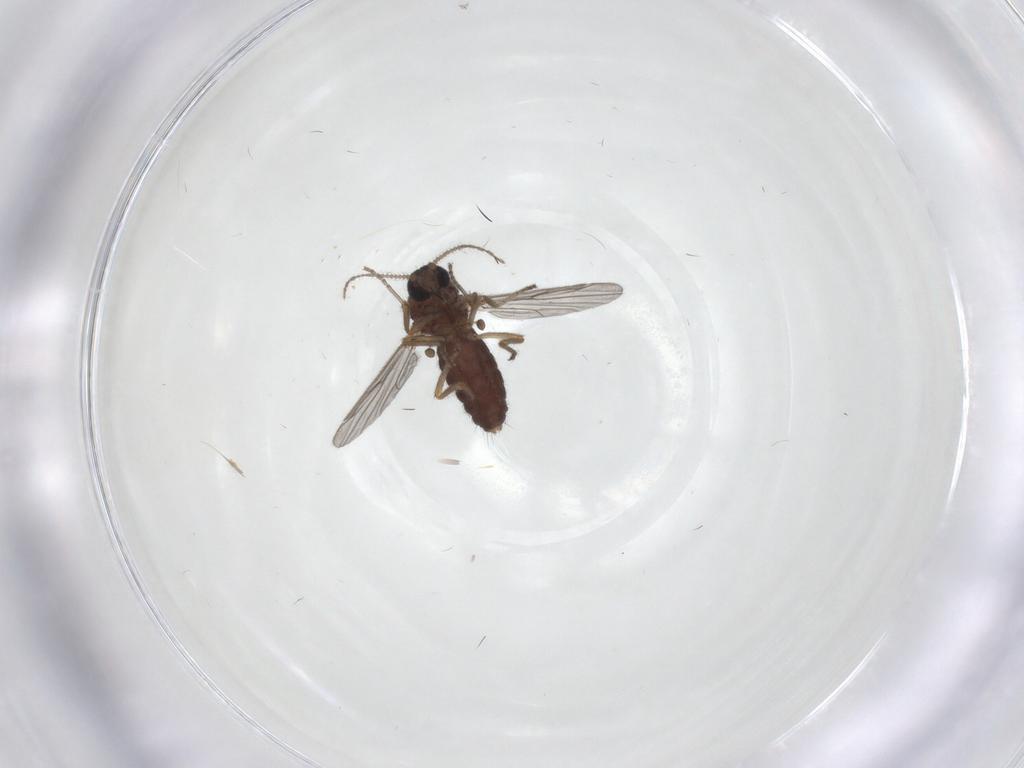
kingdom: Animalia
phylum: Arthropoda
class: Insecta
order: Diptera
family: Ceratopogonidae
